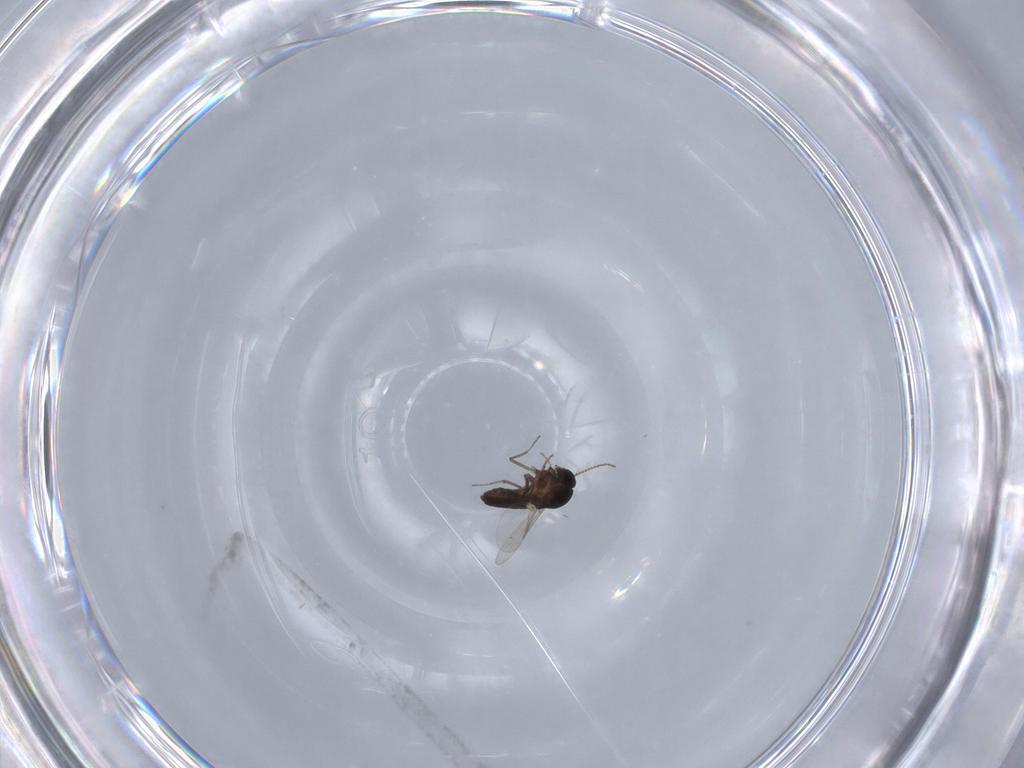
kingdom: Animalia
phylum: Arthropoda
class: Insecta
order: Diptera
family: Ceratopogonidae
